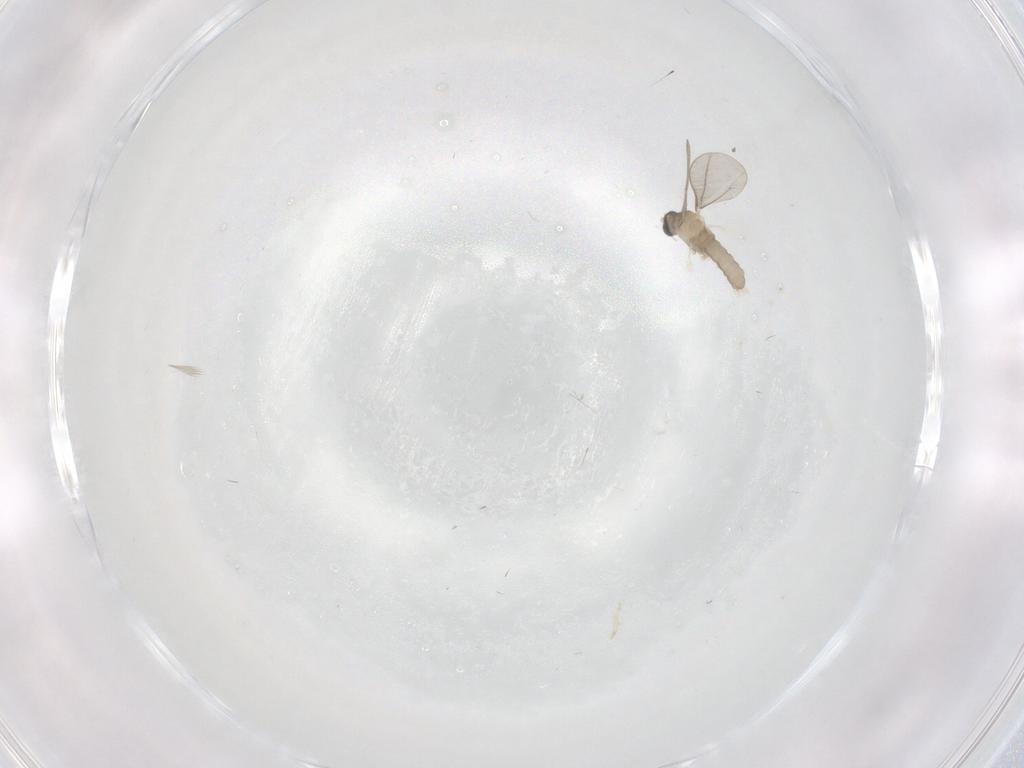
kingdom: Animalia
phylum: Arthropoda
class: Insecta
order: Diptera
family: Cecidomyiidae
